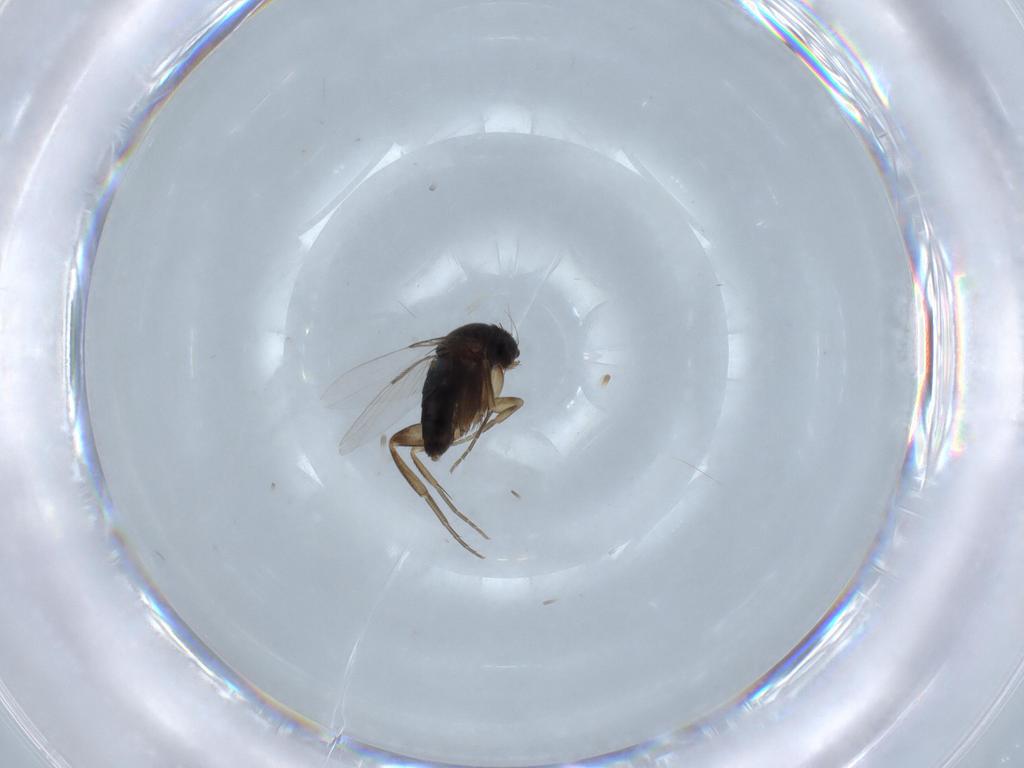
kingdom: Animalia
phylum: Arthropoda
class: Insecta
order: Diptera
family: Phoridae
